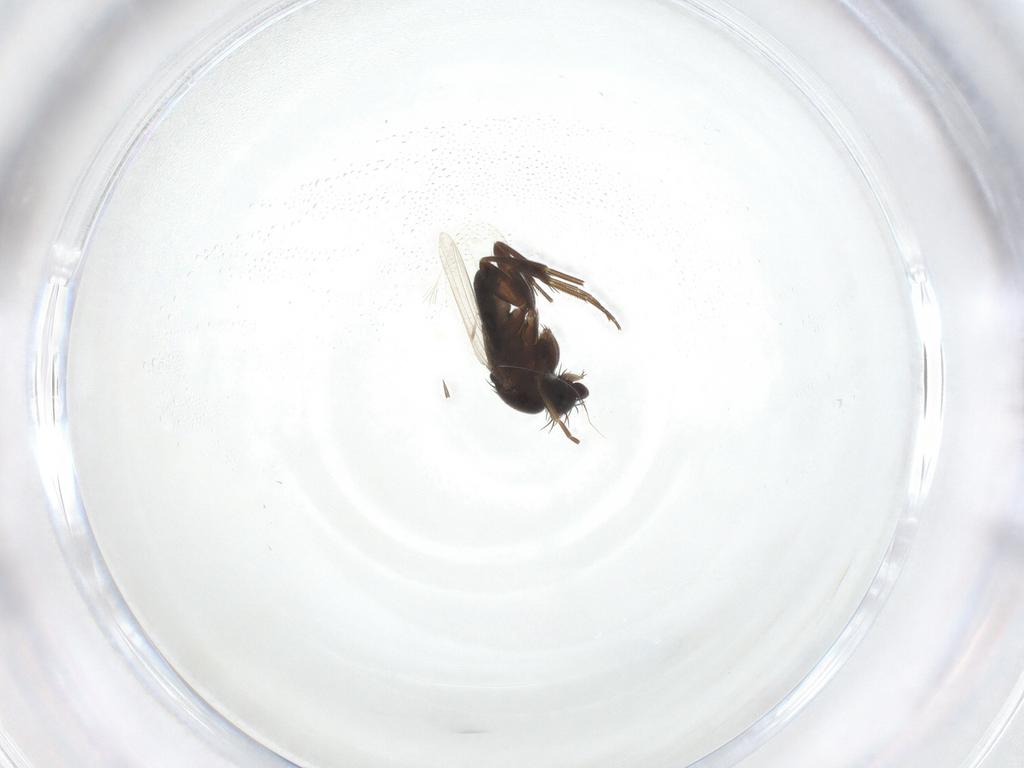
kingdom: Animalia
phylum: Arthropoda
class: Insecta
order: Diptera
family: Phoridae
